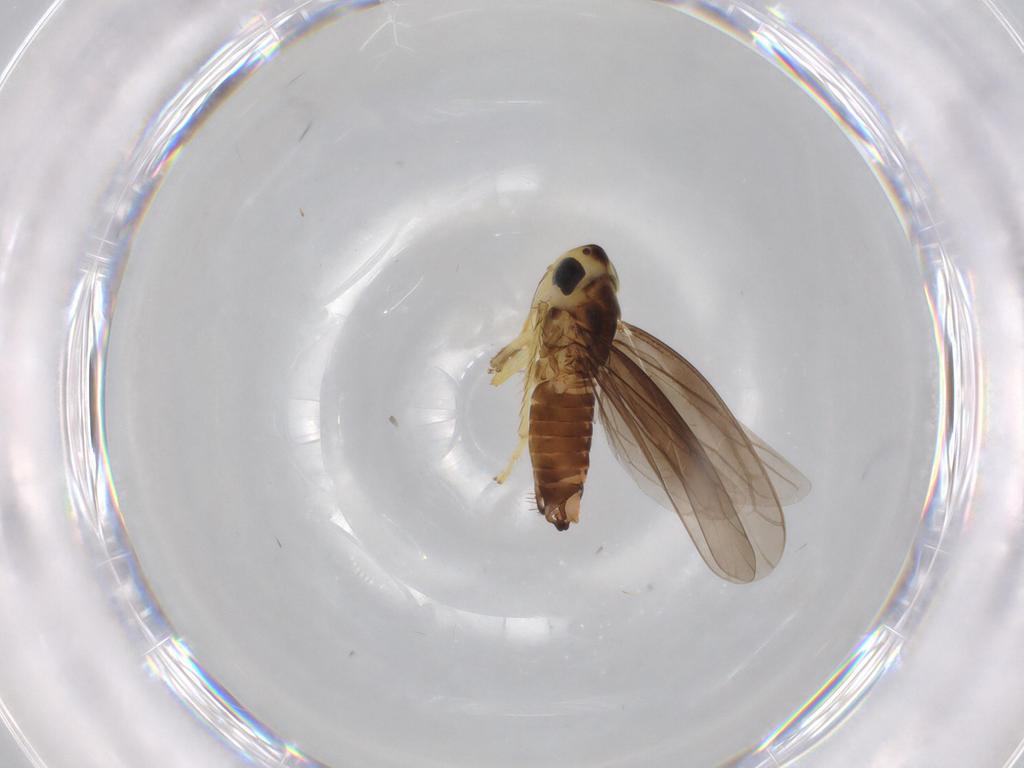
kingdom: Animalia
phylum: Arthropoda
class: Insecta
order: Hemiptera
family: Cicadellidae
